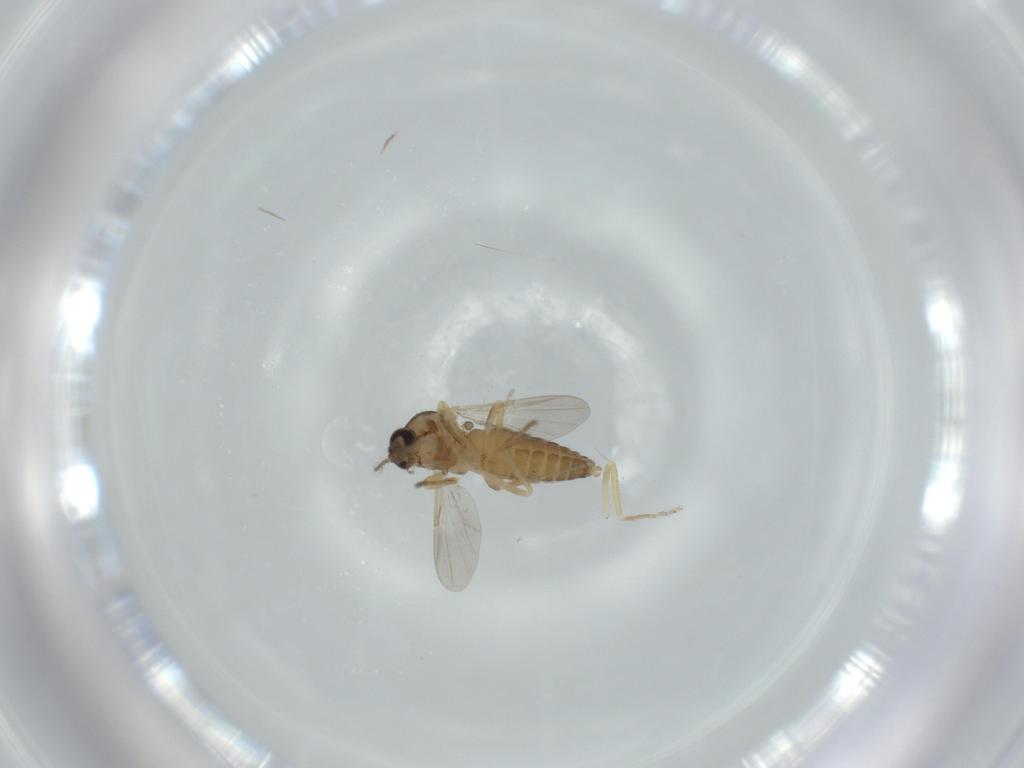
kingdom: Animalia
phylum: Arthropoda
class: Insecta
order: Diptera
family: Ceratopogonidae
